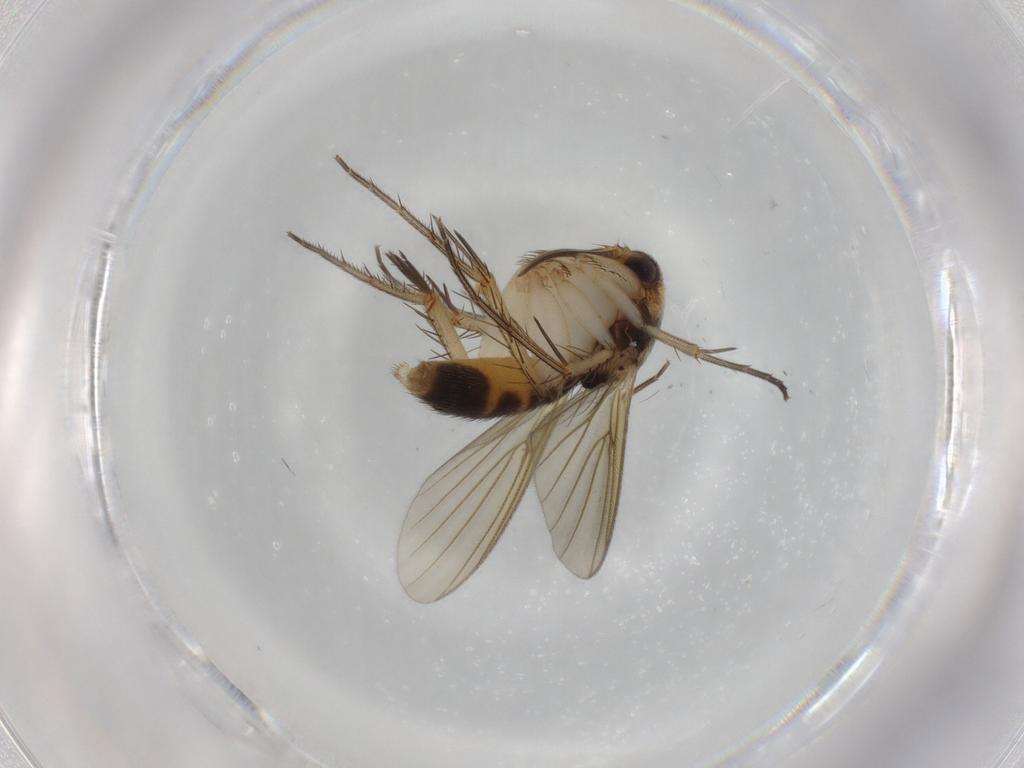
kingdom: Animalia
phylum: Arthropoda
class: Insecta
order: Diptera
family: Mycetophilidae
